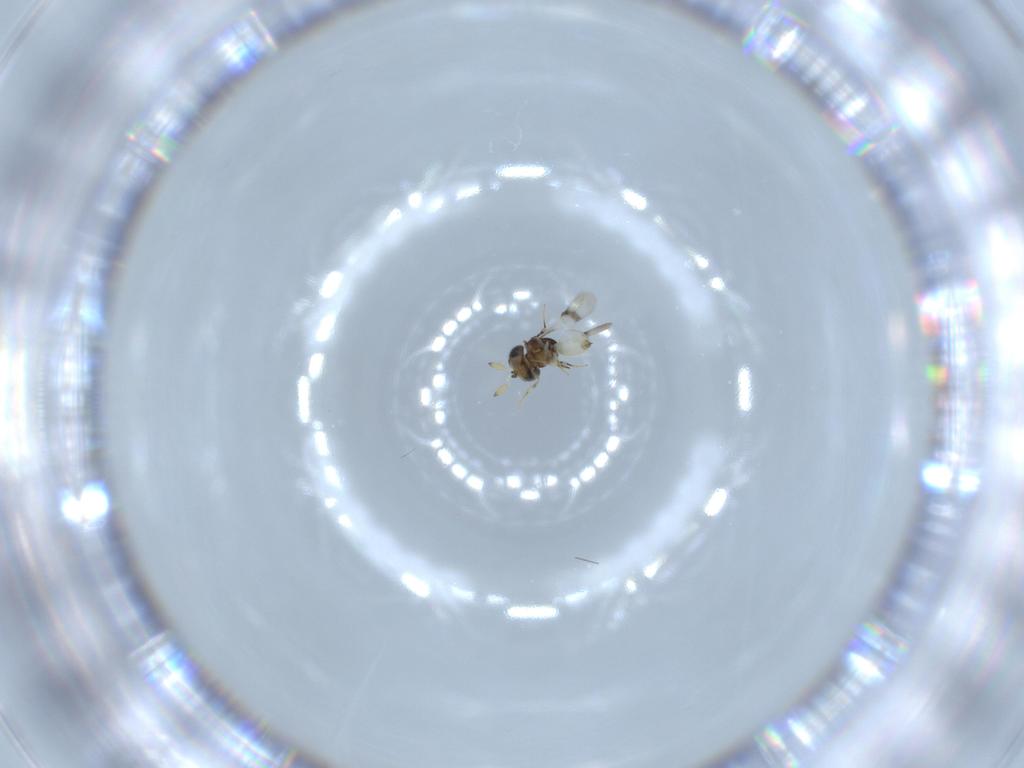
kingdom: Animalia
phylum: Arthropoda
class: Insecta
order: Hymenoptera
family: Scelionidae
